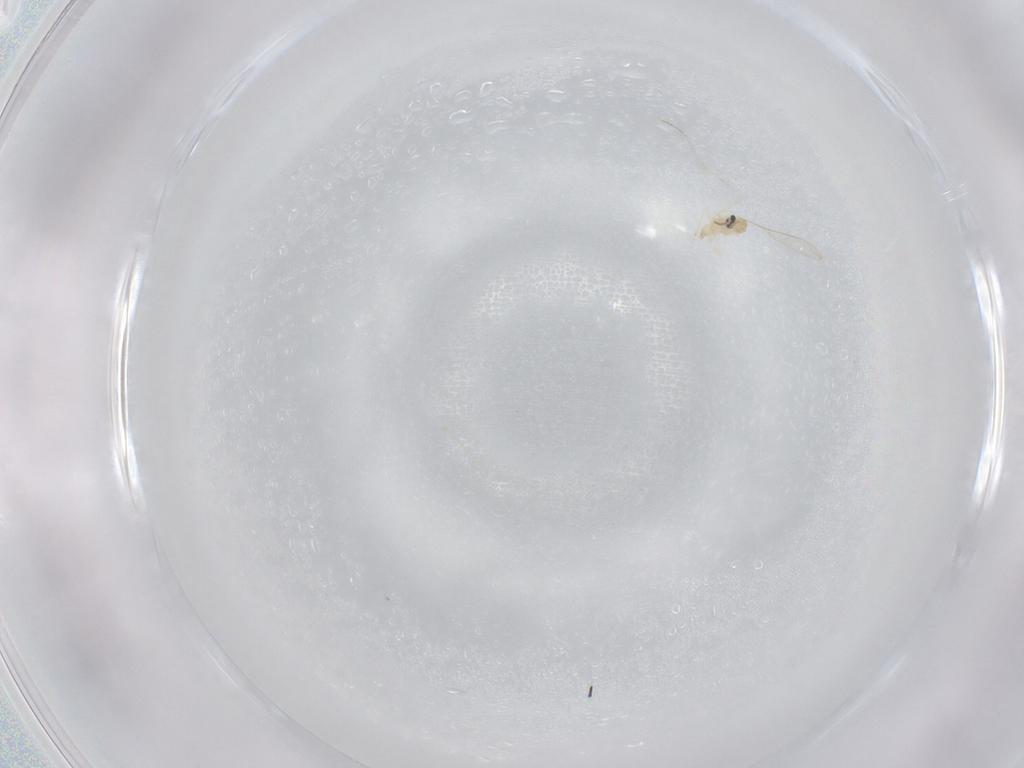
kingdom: Animalia
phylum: Arthropoda
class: Insecta
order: Diptera
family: Cecidomyiidae
